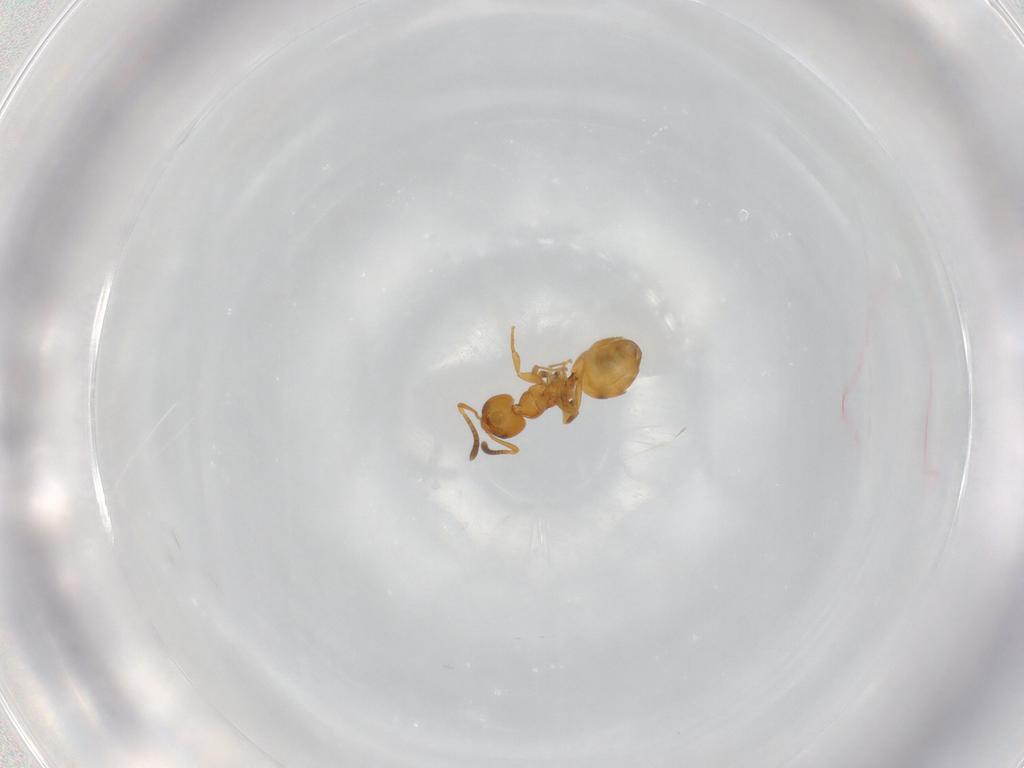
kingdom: Animalia
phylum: Arthropoda
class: Insecta
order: Hymenoptera
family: Formicidae
